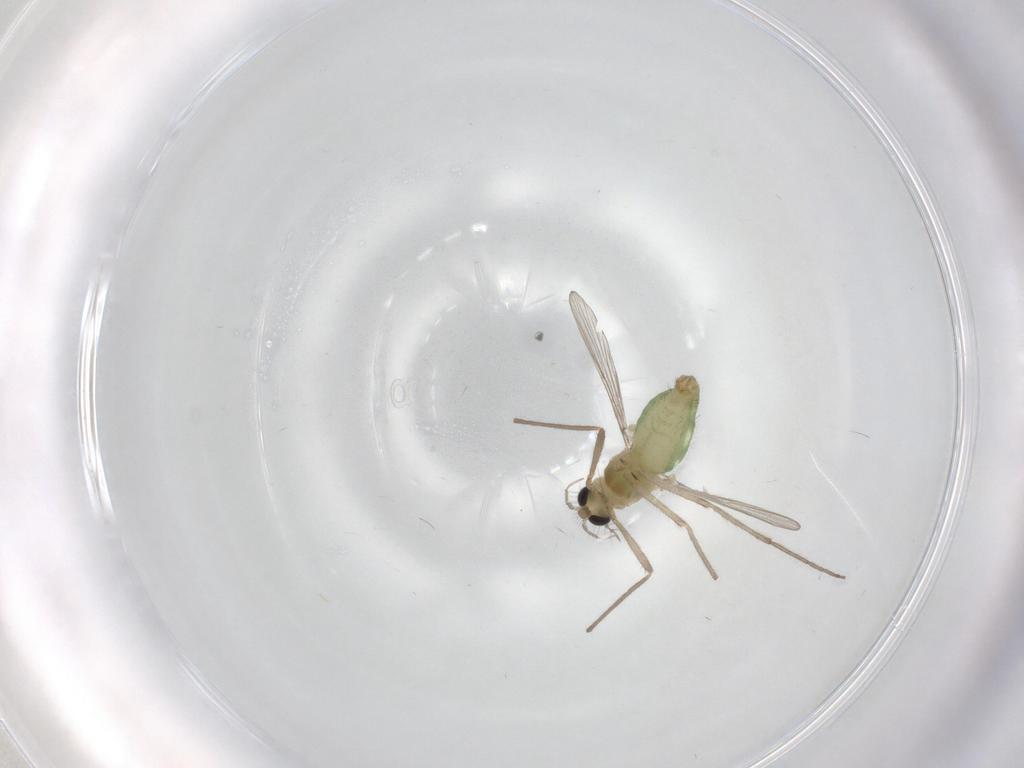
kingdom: Animalia
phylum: Arthropoda
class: Insecta
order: Diptera
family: Chironomidae
